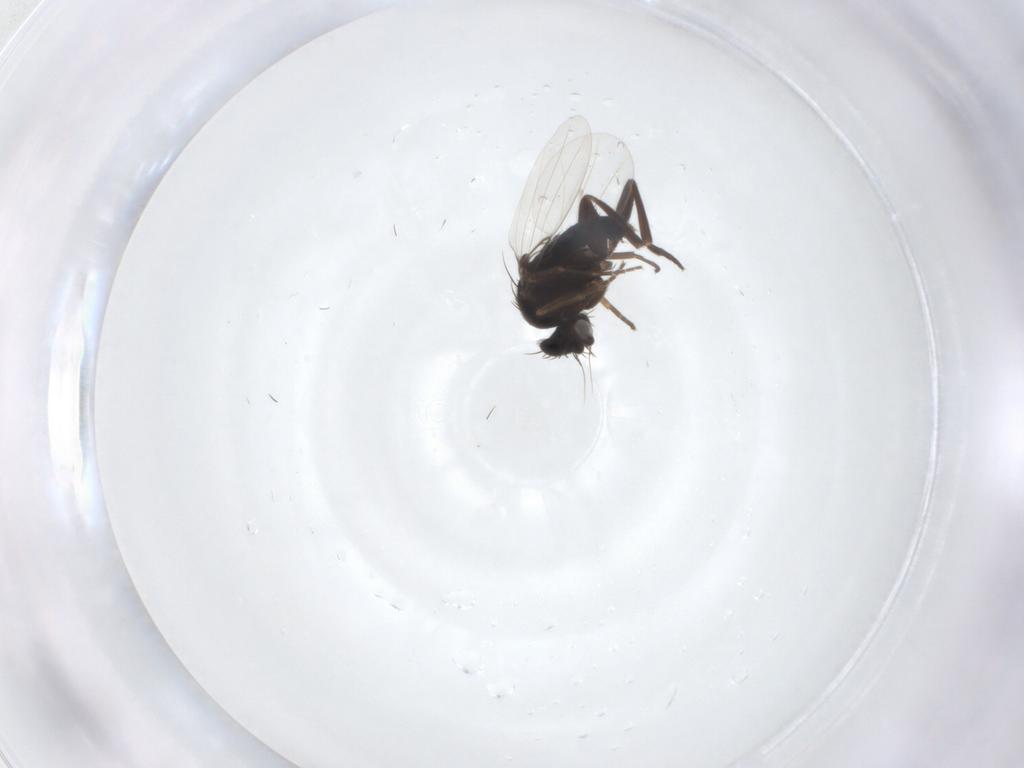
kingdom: Animalia
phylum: Arthropoda
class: Insecta
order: Diptera
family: Phoridae
